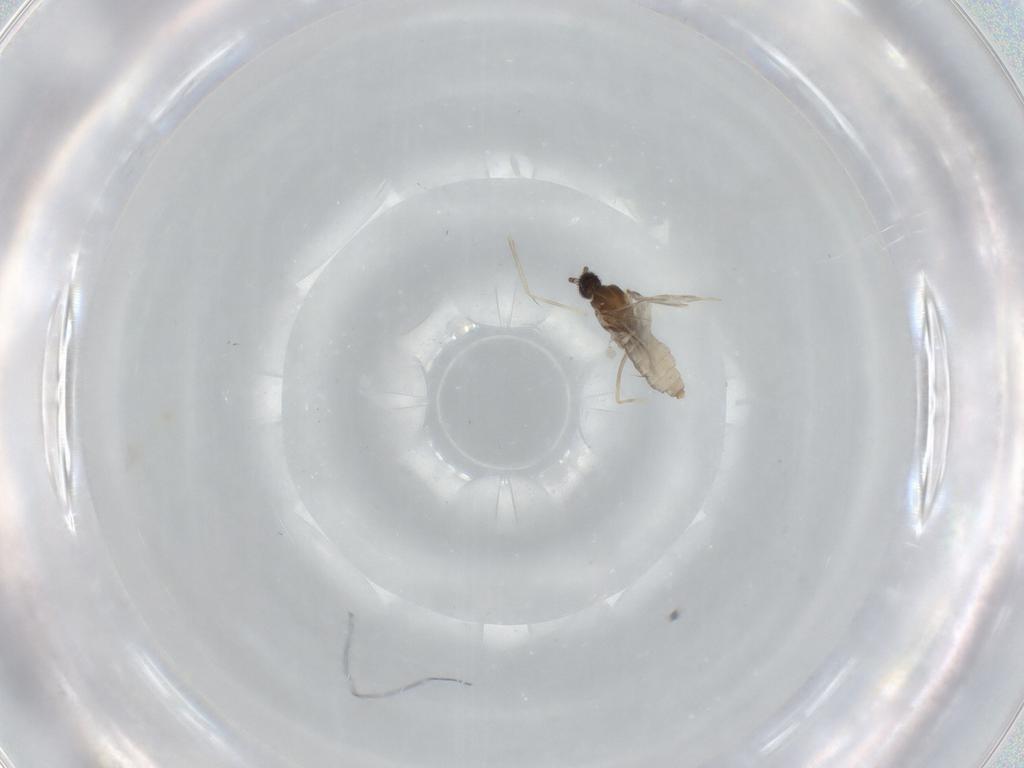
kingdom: Animalia
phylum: Arthropoda
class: Insecta
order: Diptera
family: Cecidomyiidae
